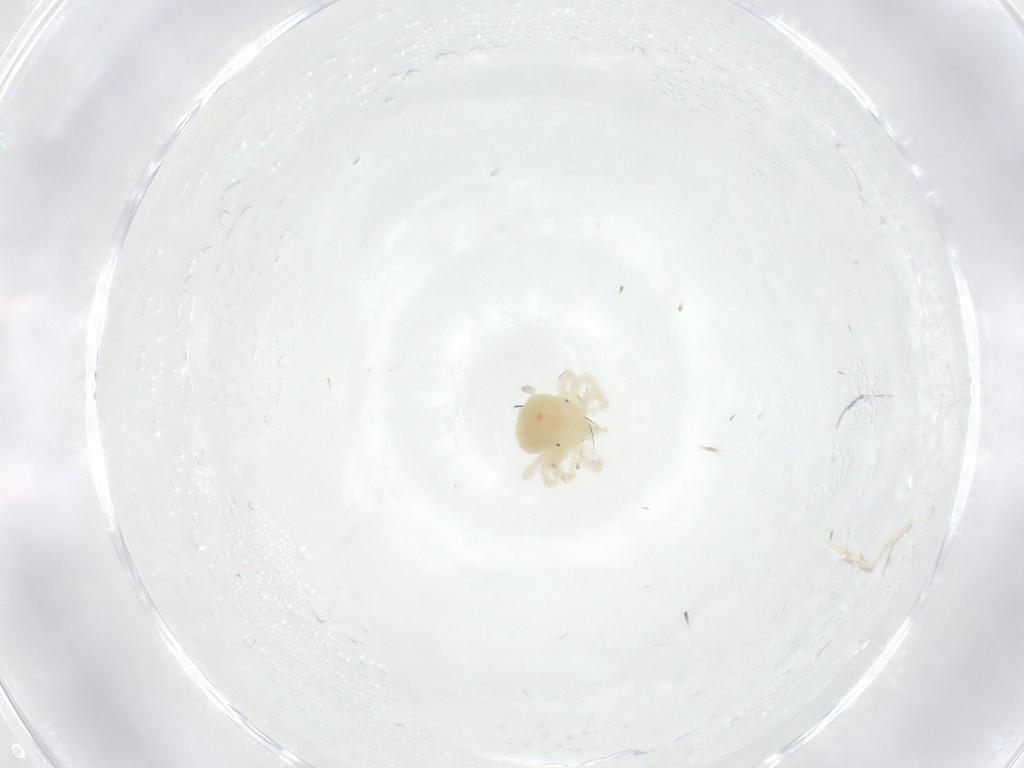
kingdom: Animalia
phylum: Arthropoda
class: Arachnida
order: Trombidiformes
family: Anystidae
